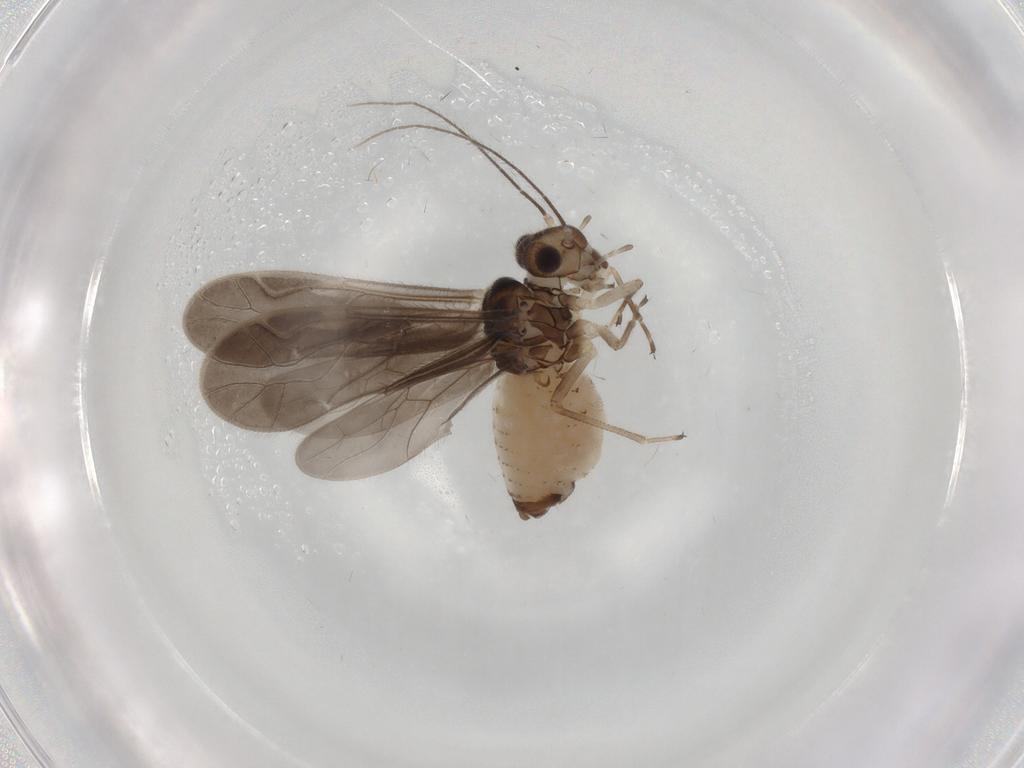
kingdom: Animalia
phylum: Arthropoda
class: Insecta
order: Psocodea
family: Caeciliusidae
